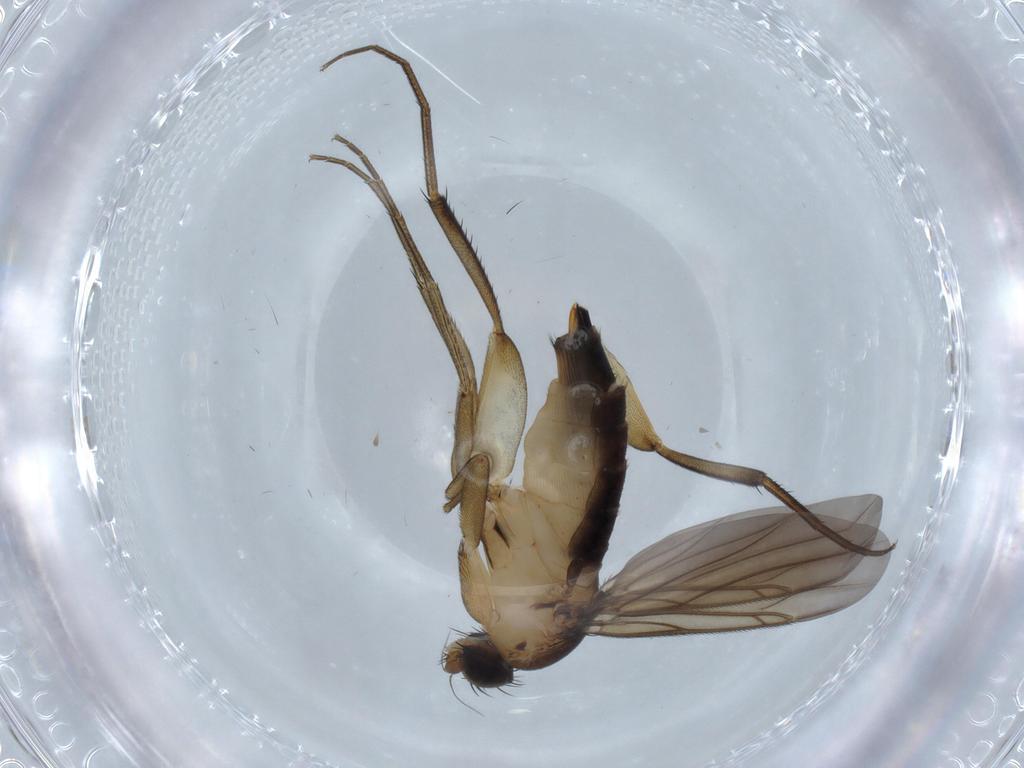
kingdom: Animalia
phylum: Arthropoda
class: Insecta
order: Diptera
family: Phoridae
